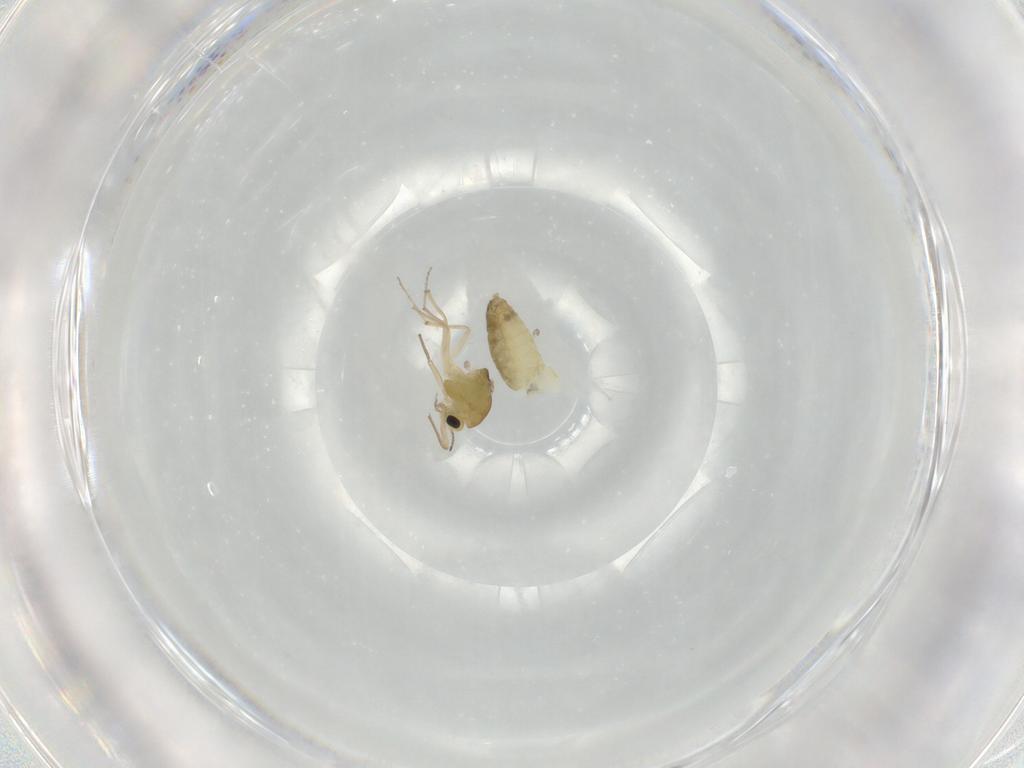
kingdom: Animalia
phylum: Arthropoda
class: Insecta
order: Diptera
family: Chironomidae
